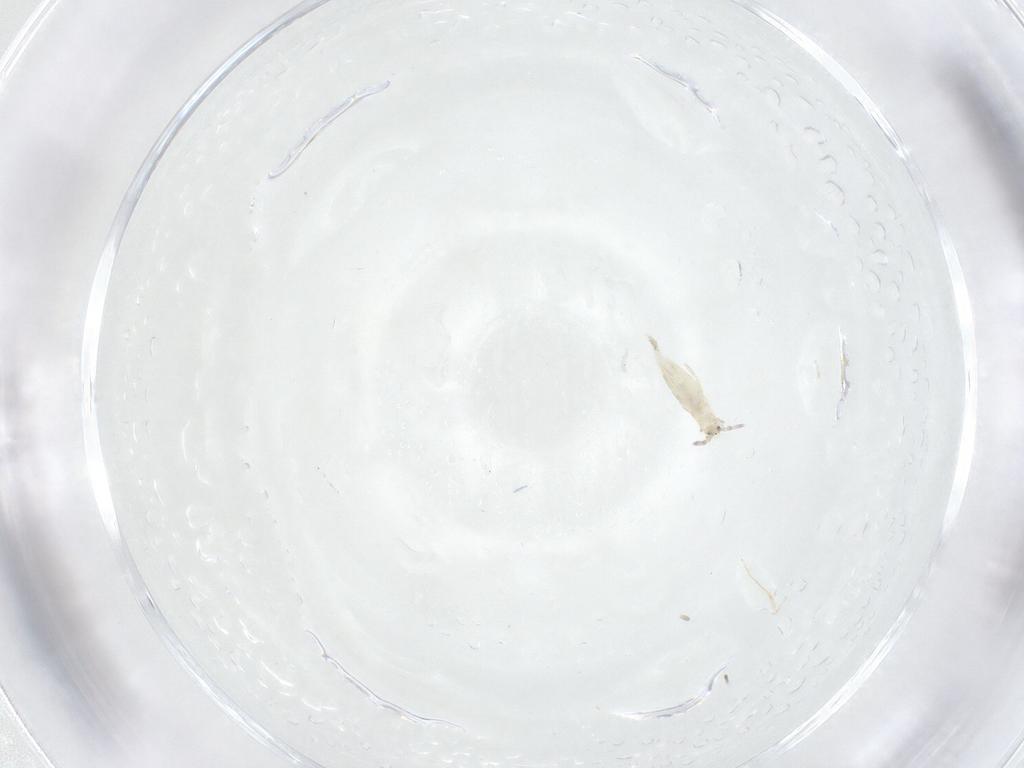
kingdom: Animalia
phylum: Arthropoda
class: Collembola
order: Entomobryomorpha
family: Entomobryidae
